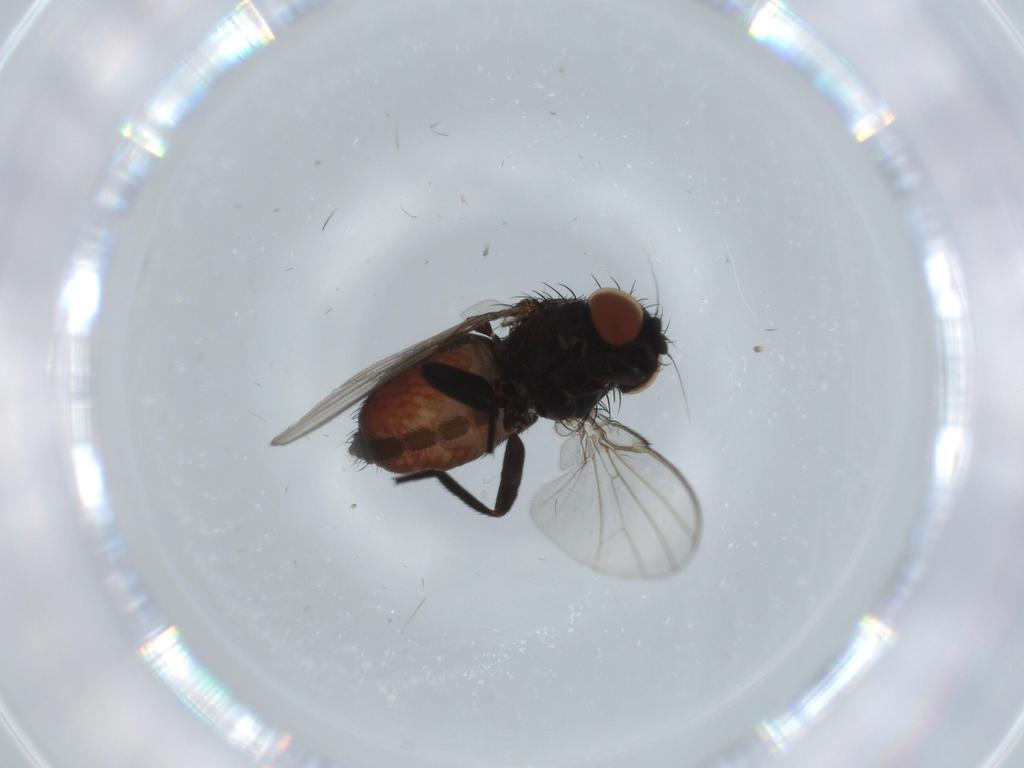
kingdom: Animalia
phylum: Arthropoda
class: Insecta
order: Diptera
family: Milichiidae
